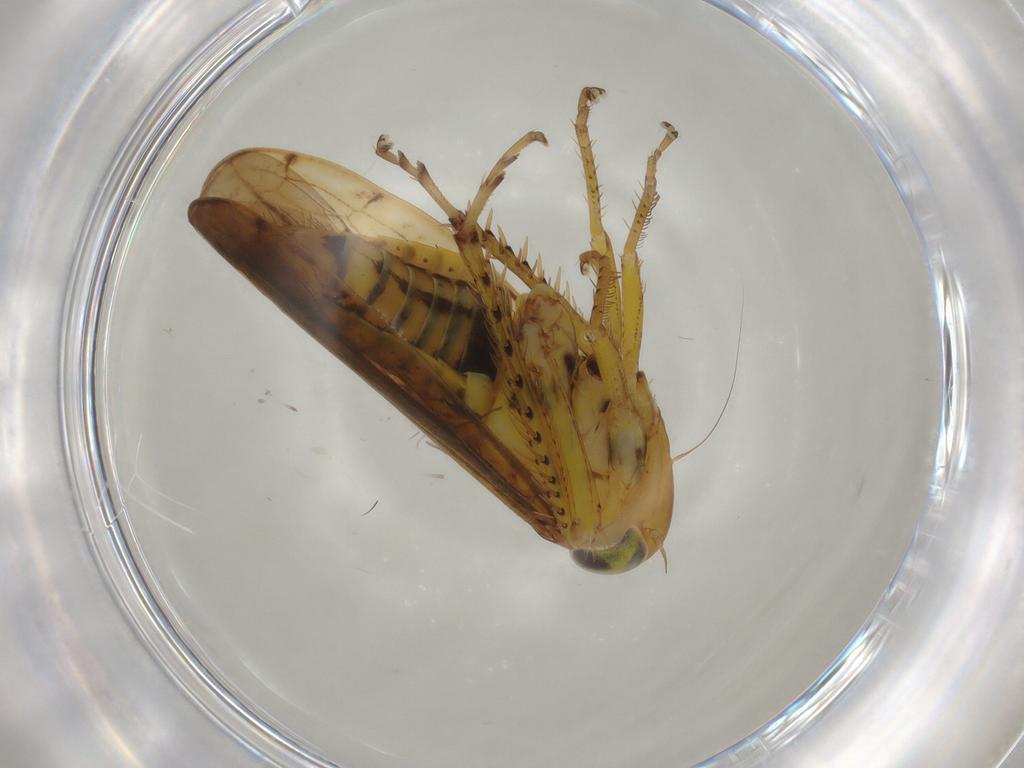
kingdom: Animalia
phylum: Arthropoda
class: Insecta
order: Hemiptera
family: Cicadellidae
